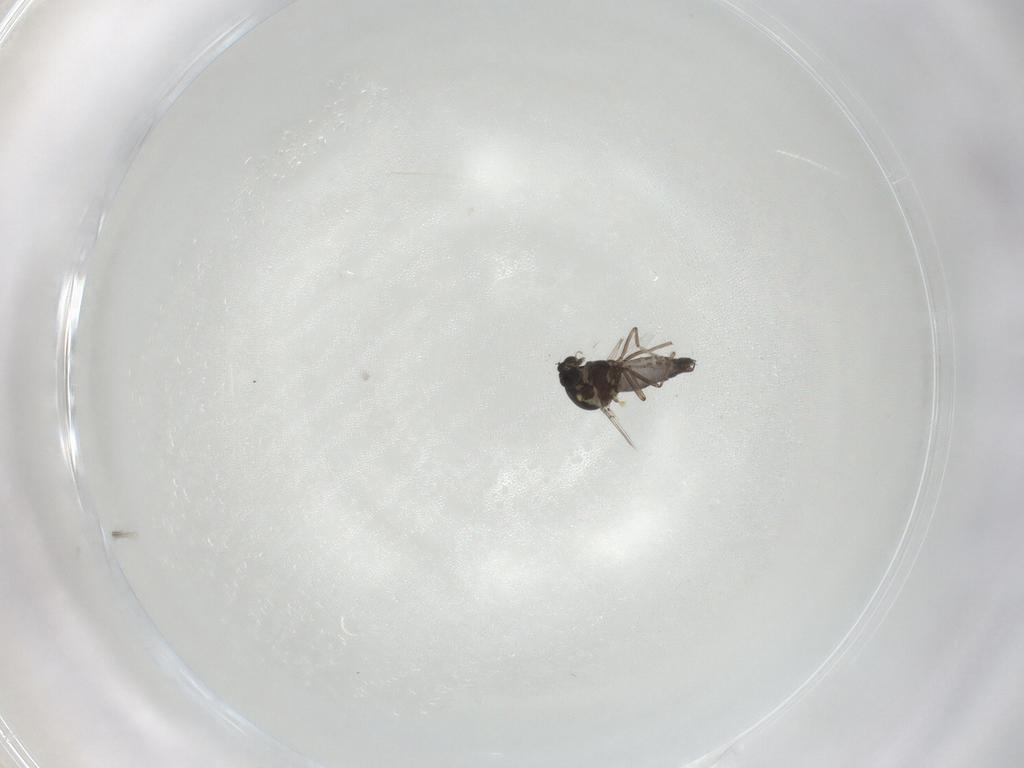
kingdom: Animalia
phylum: Arthropoda
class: Insecta
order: Diptera
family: Ceratopogonidae
